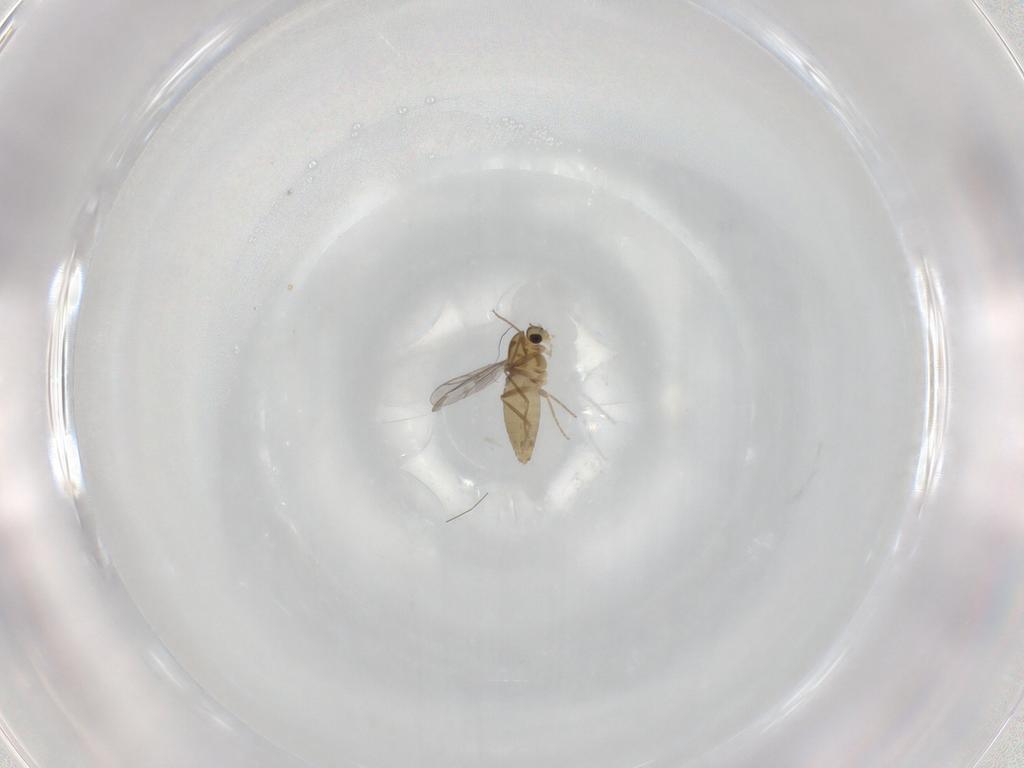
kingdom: Animalia
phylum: Arthropoda
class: Insecta
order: Diptera
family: Chironomidae
